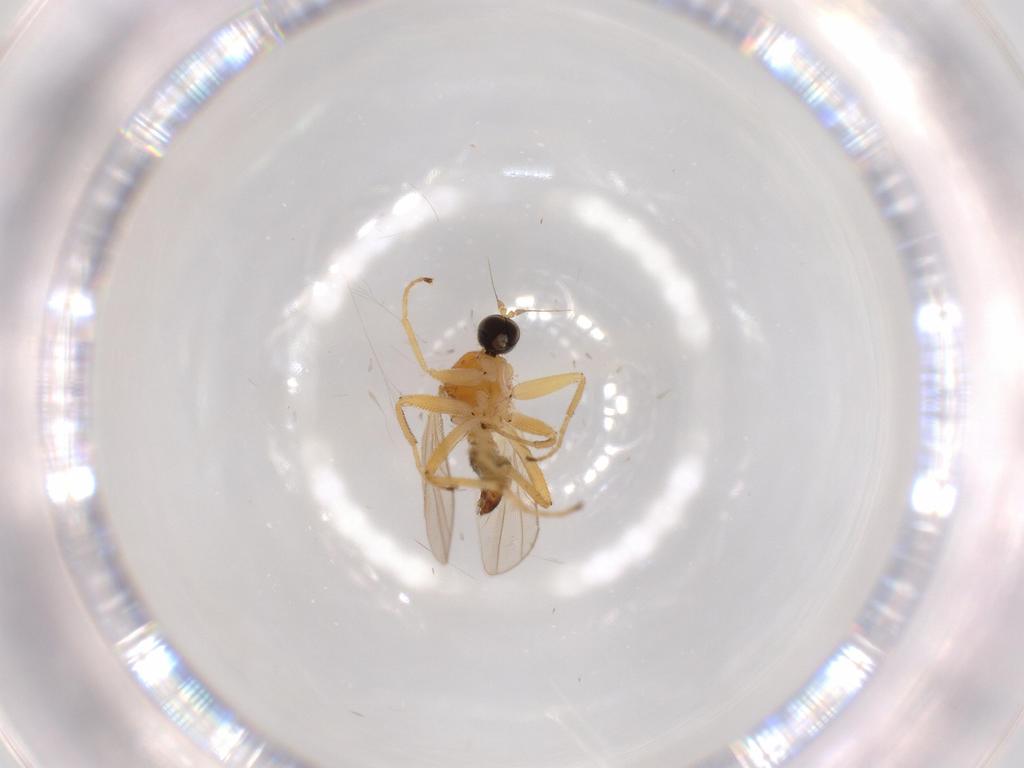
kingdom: Animalia
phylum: Arthropoda
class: Insecta
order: Diptera
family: Hybotidae
